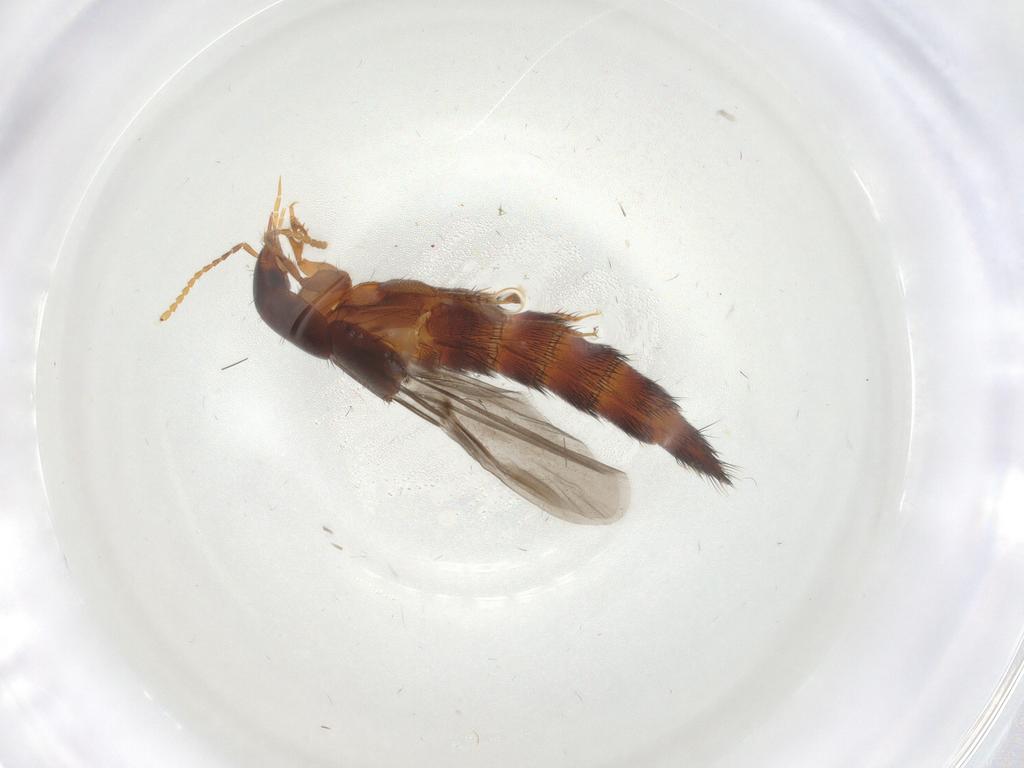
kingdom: Animalia
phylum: Arthropoda
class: Insecta
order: Coleoptera
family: Staphylinidae
